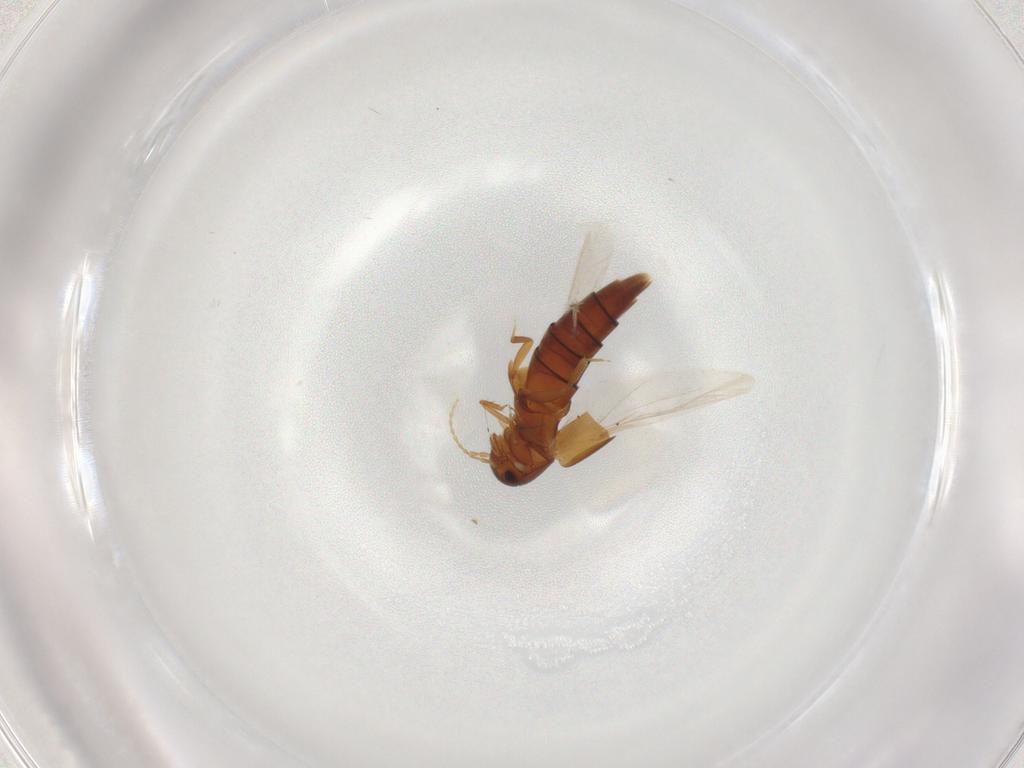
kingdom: Animalia
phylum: Arthropoda
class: Insecta
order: Coleoptera
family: Staphylinidae
